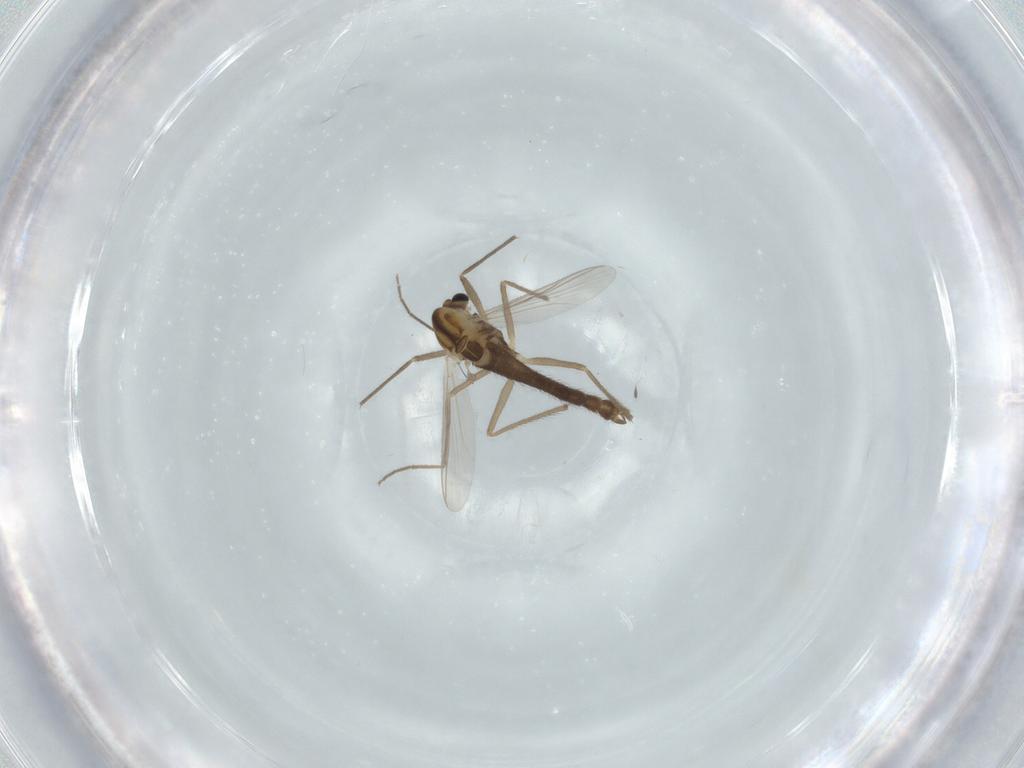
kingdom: Animalia
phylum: Arthropoda
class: Insecta
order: Diptera
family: Chironomidae
